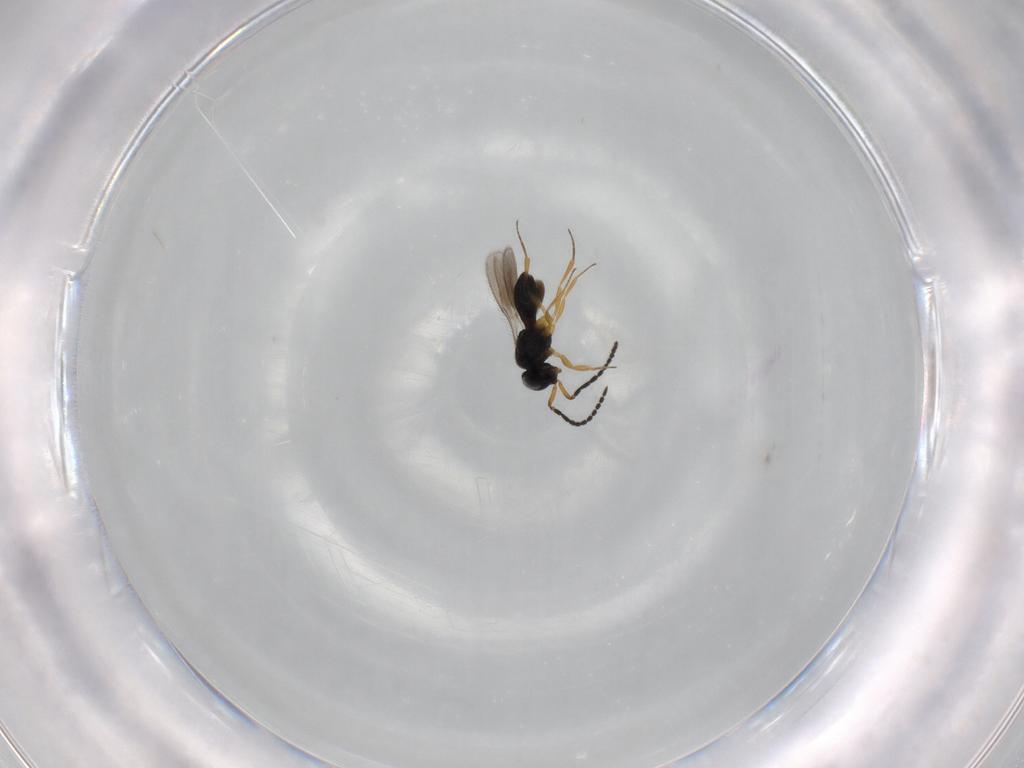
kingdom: Animalia
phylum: Arthropoda
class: Insecta
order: Hymenoptera
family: Scelionidae
